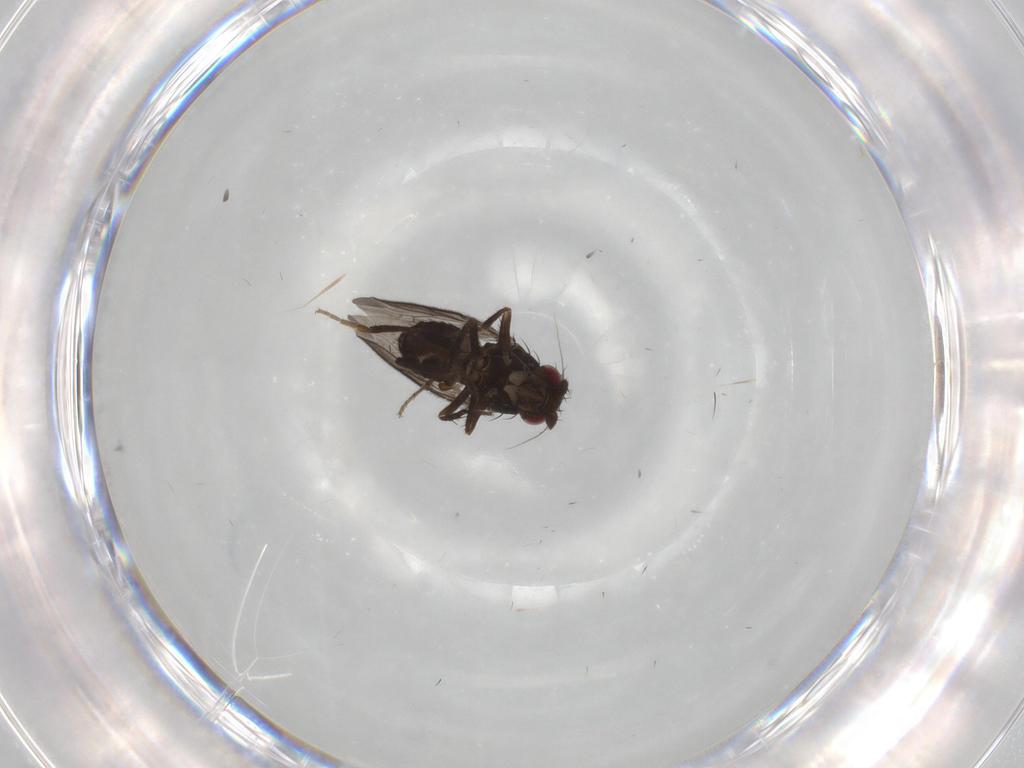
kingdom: Animalia
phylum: Arthropoda
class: Insecta
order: Diptera
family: Sphaeroceridae
